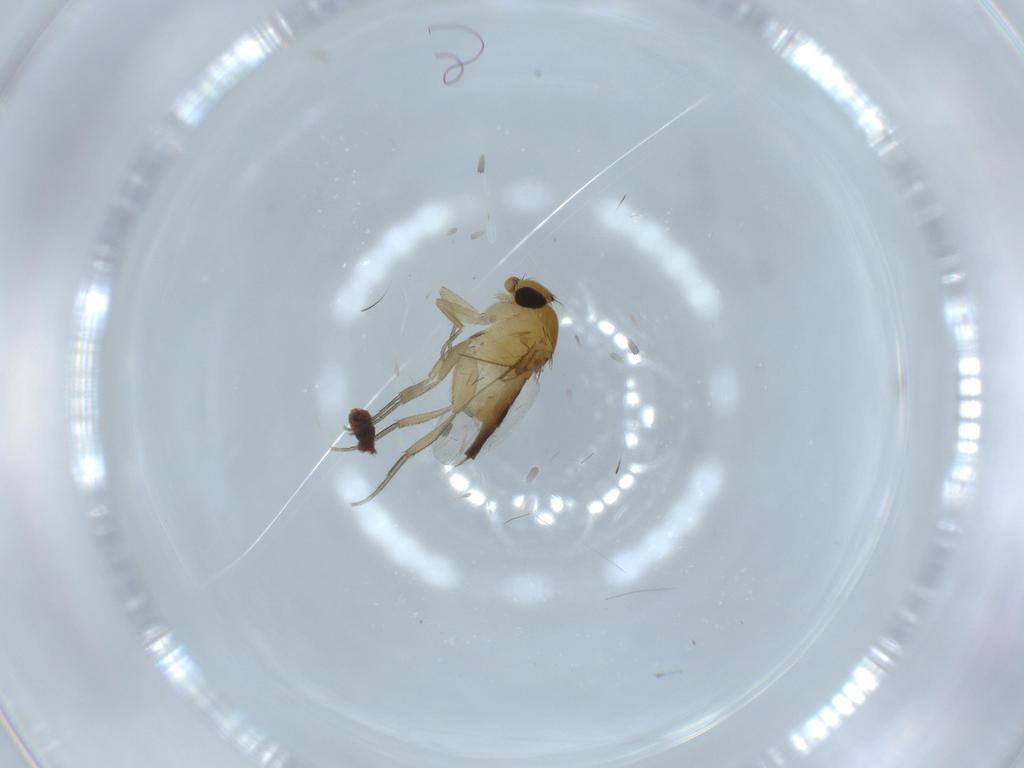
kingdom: Animalia
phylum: Arthropoda
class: Insecta
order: Diptera
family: Phoridae
